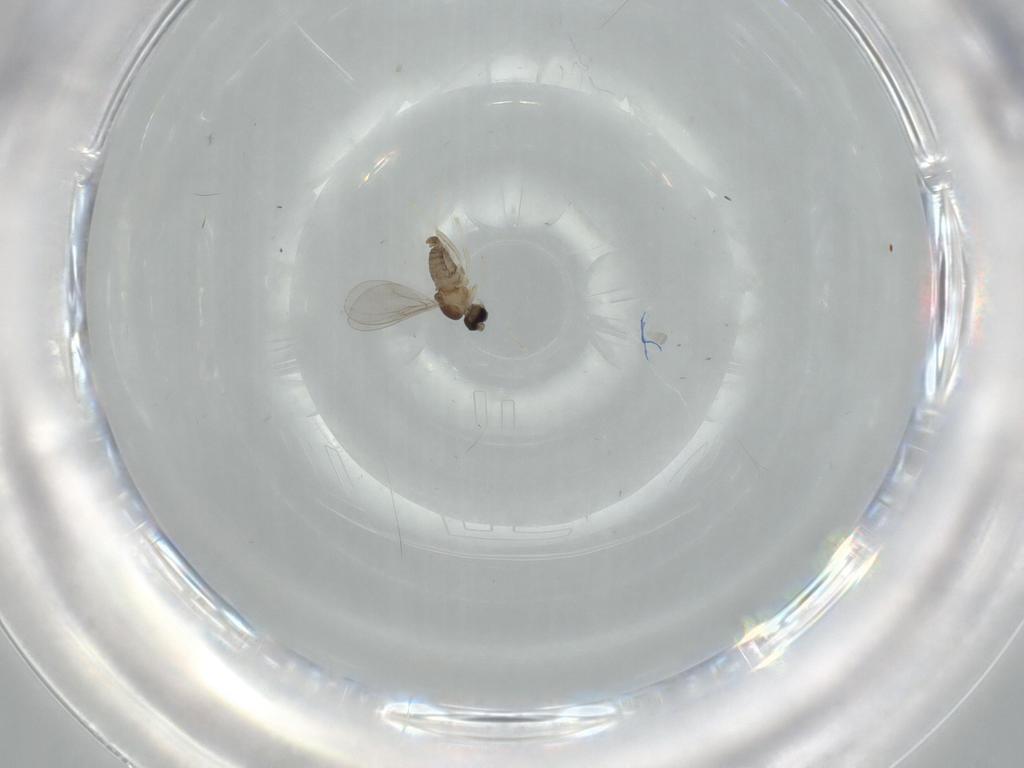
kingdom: Animalia
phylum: Arthropoda
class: Insecta
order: Diptera
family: Cecidomyiidae
